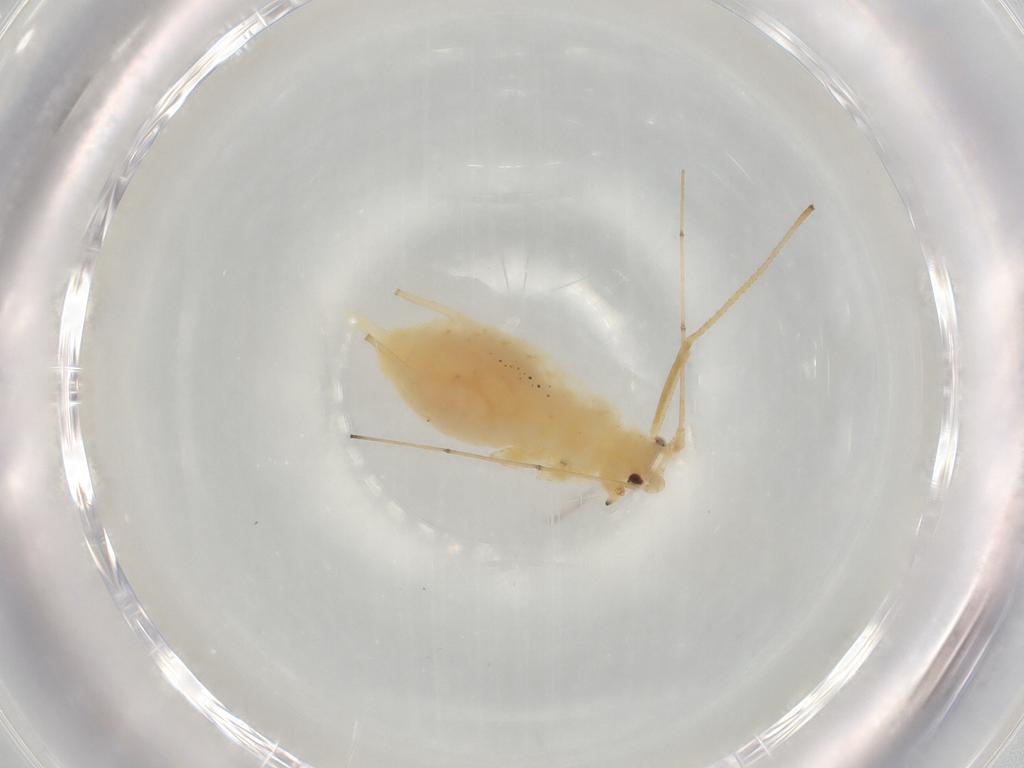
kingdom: Animalia
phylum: Arthropoda
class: Insecta
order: Hemiptera
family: Aphididae
